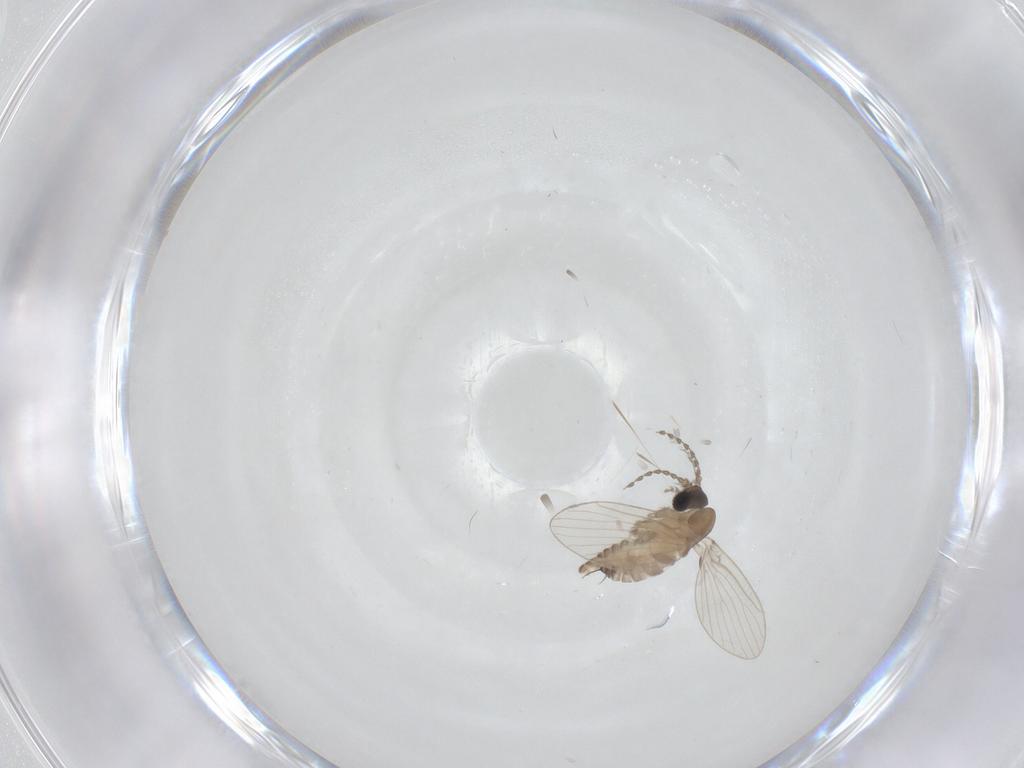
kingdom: Animalia
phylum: Arthropoda
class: Insecta
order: Diptera
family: Psychodidae
